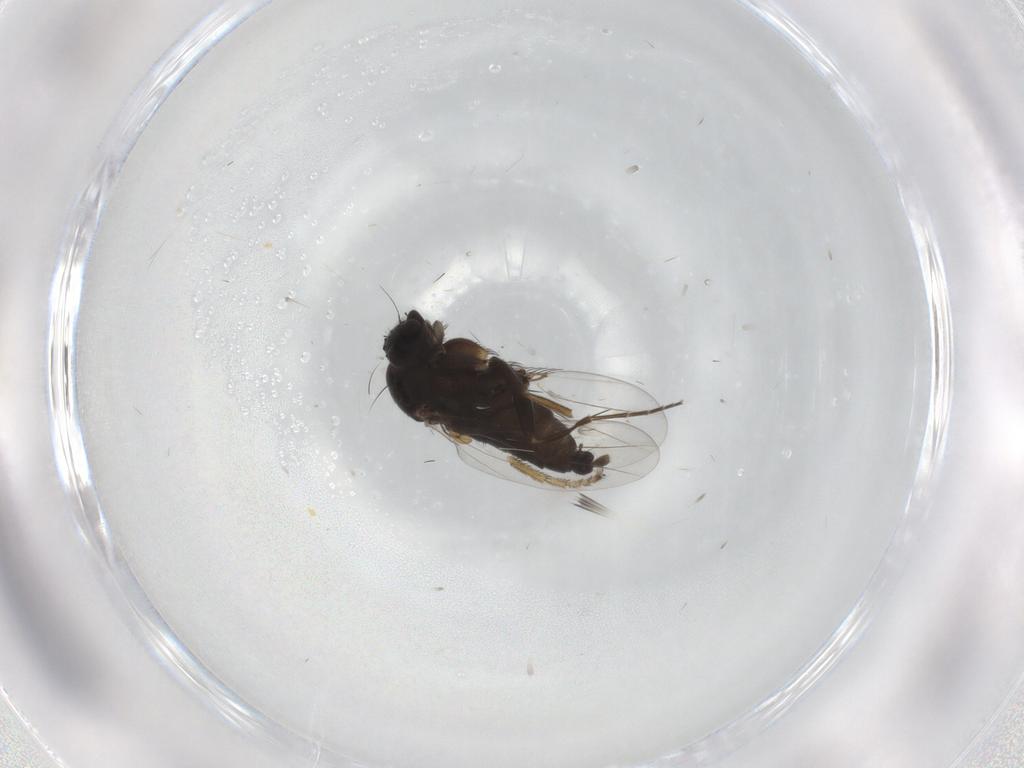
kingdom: Animalia
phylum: Arthropoda
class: Insecta
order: Diptera
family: Phoridae
